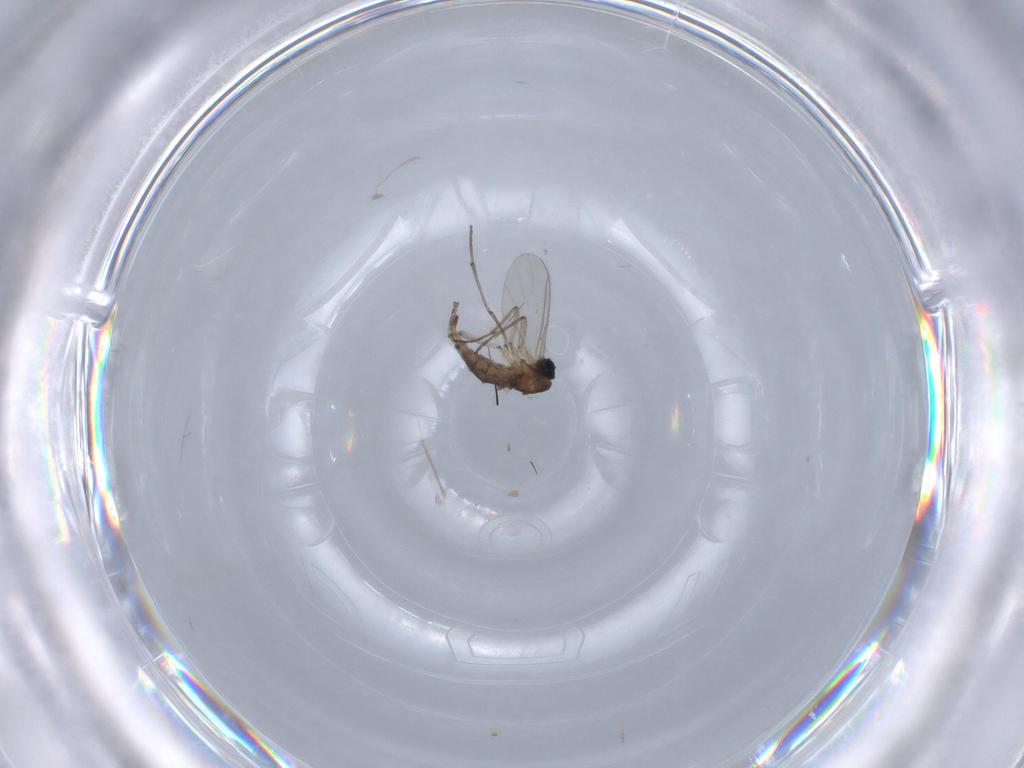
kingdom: Animalia
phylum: Arthropoda
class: Insecta
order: Diptera
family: Sciaridae
